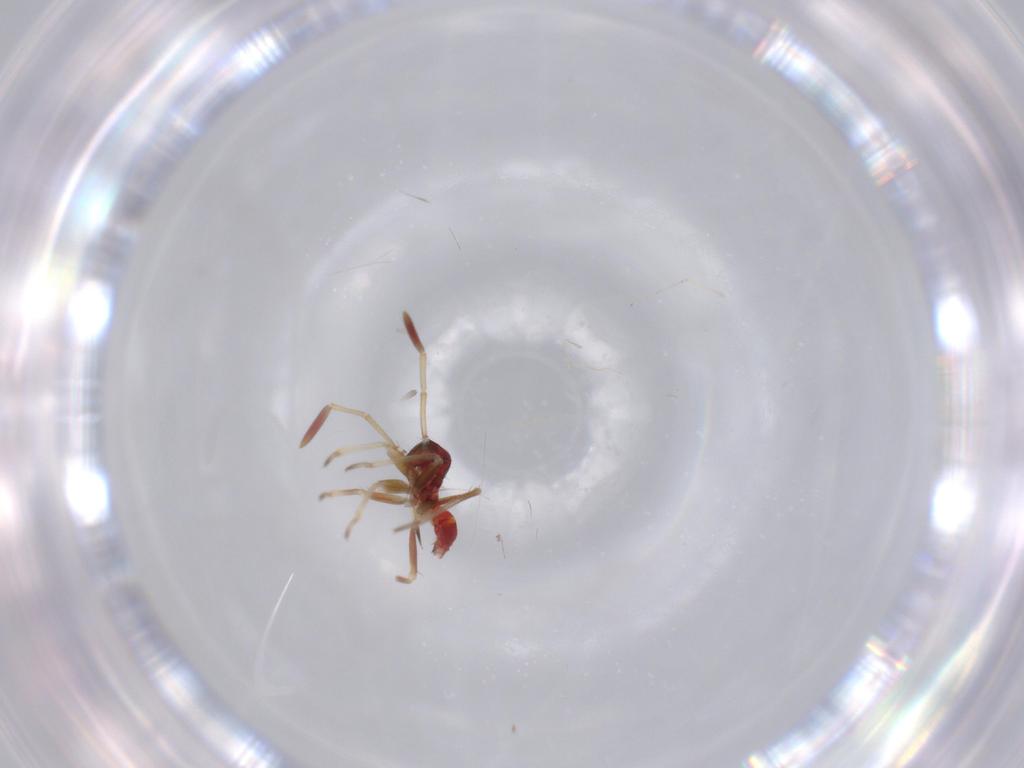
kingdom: Animalia
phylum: Arthropoda
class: Insecta
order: Hemiptera
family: Miridae
